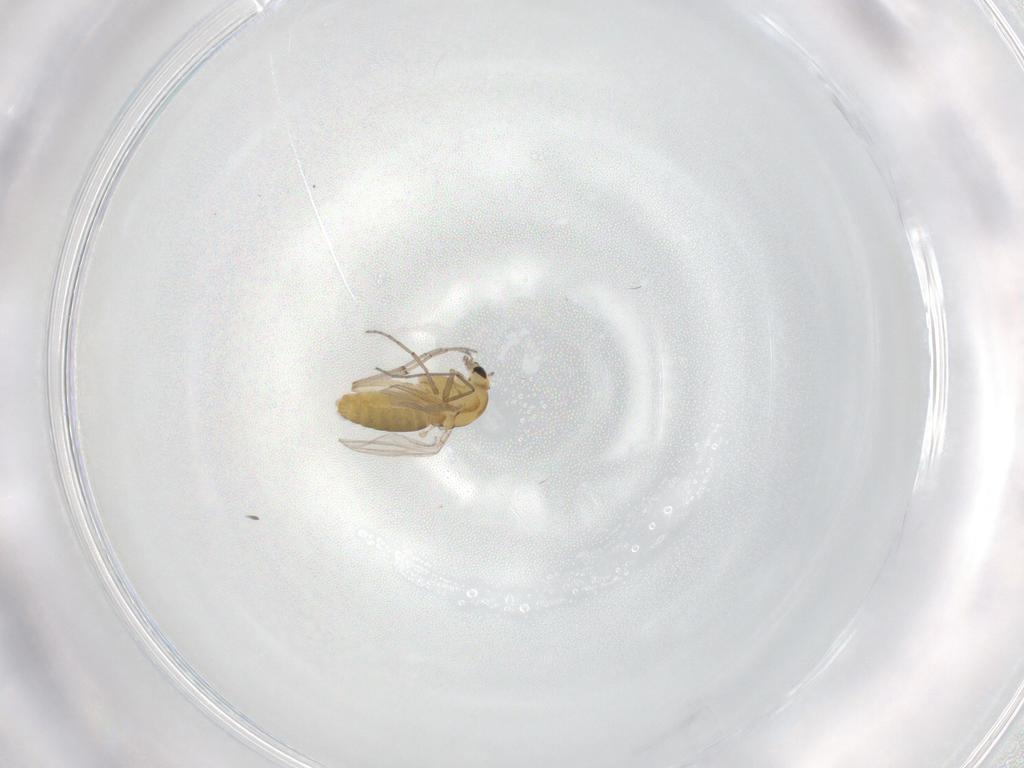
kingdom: Animalia
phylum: Arthropoda
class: Insecta
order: Diptera
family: Chironomidae
